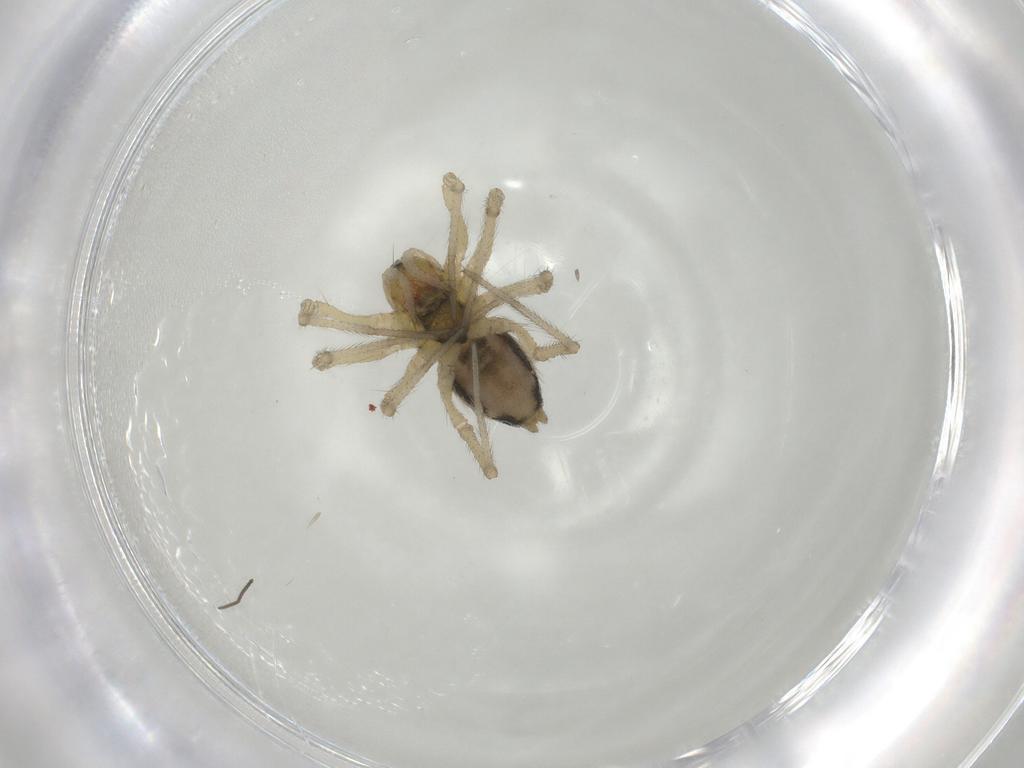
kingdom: Animalia
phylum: Arthropoda
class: Arachnida
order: Araneae
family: Linyphiidae
